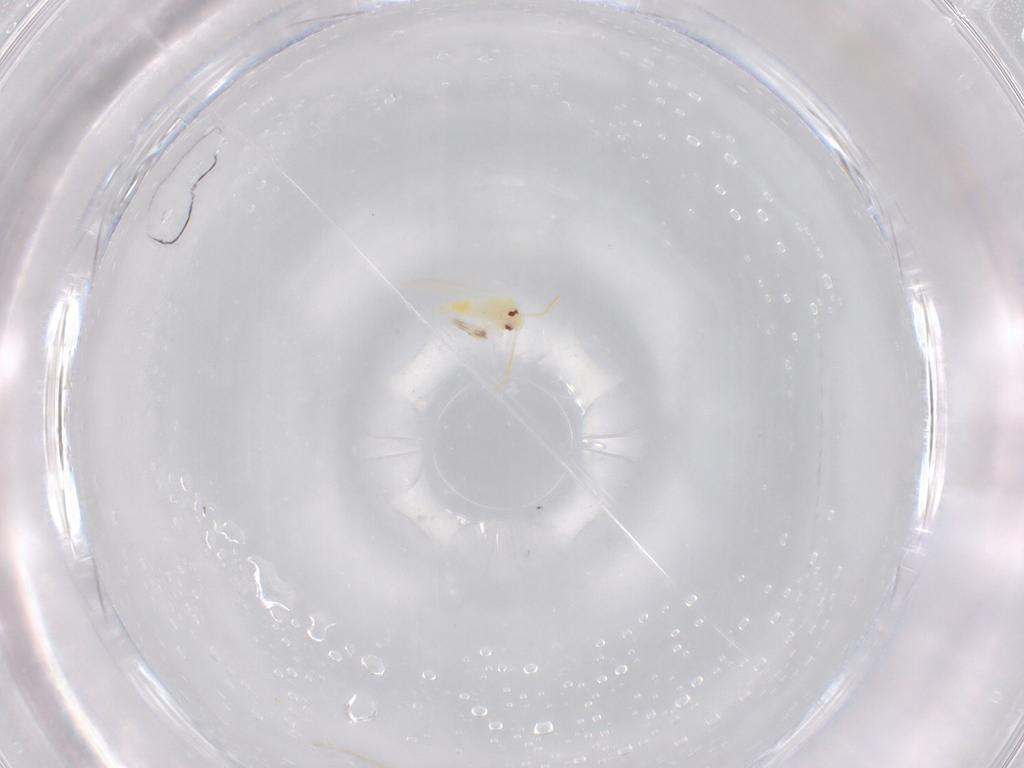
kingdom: Animalia
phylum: Arthropoda
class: Insecta
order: Hemiptera
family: Aleyrodidae
